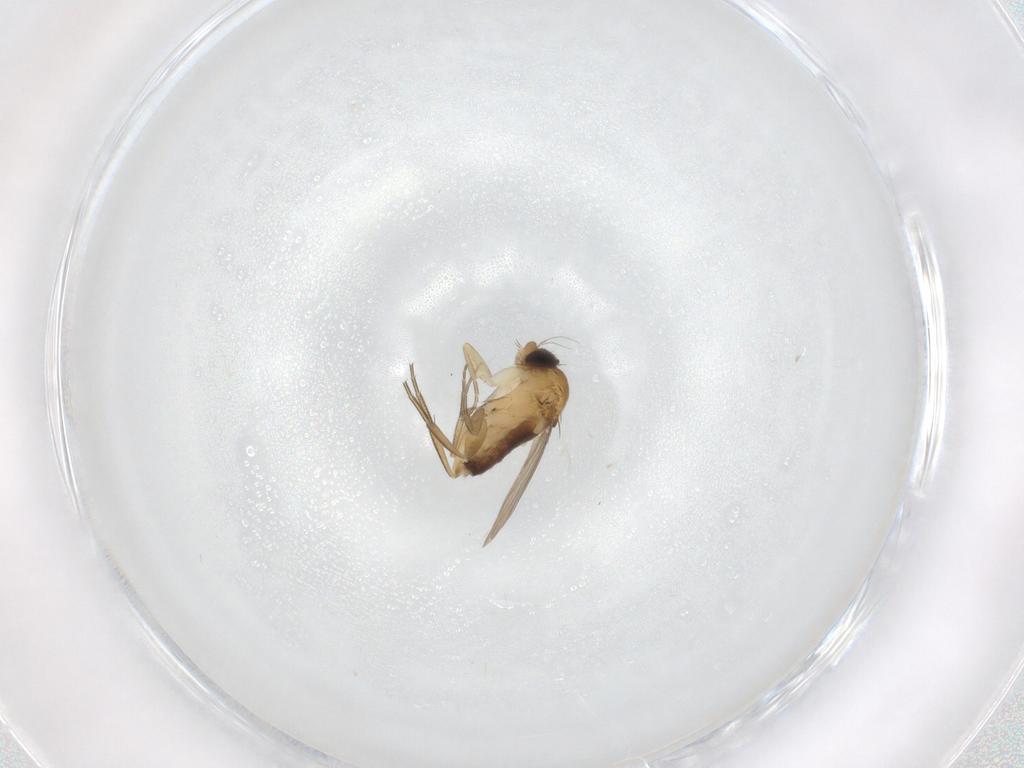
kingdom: Animalia
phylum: Arthropoda
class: Insecta
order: Diptera
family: Phoridae
